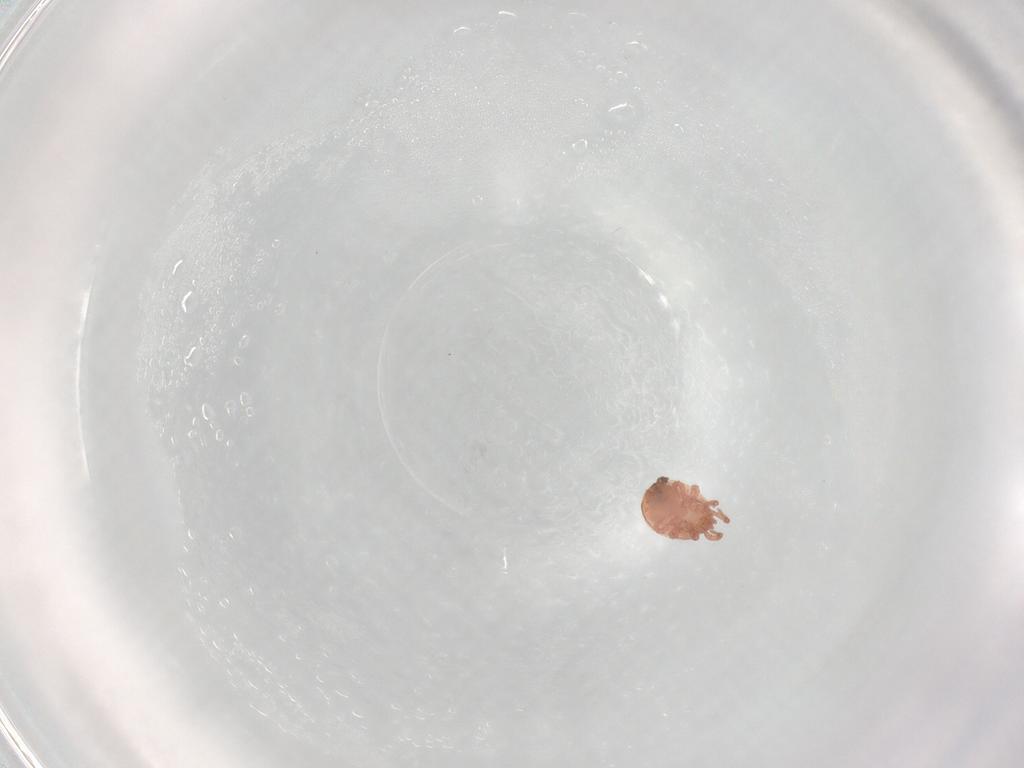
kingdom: Animalia
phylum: Arthropoda
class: Arachnida
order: Mesostigmata
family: Zerconidae
